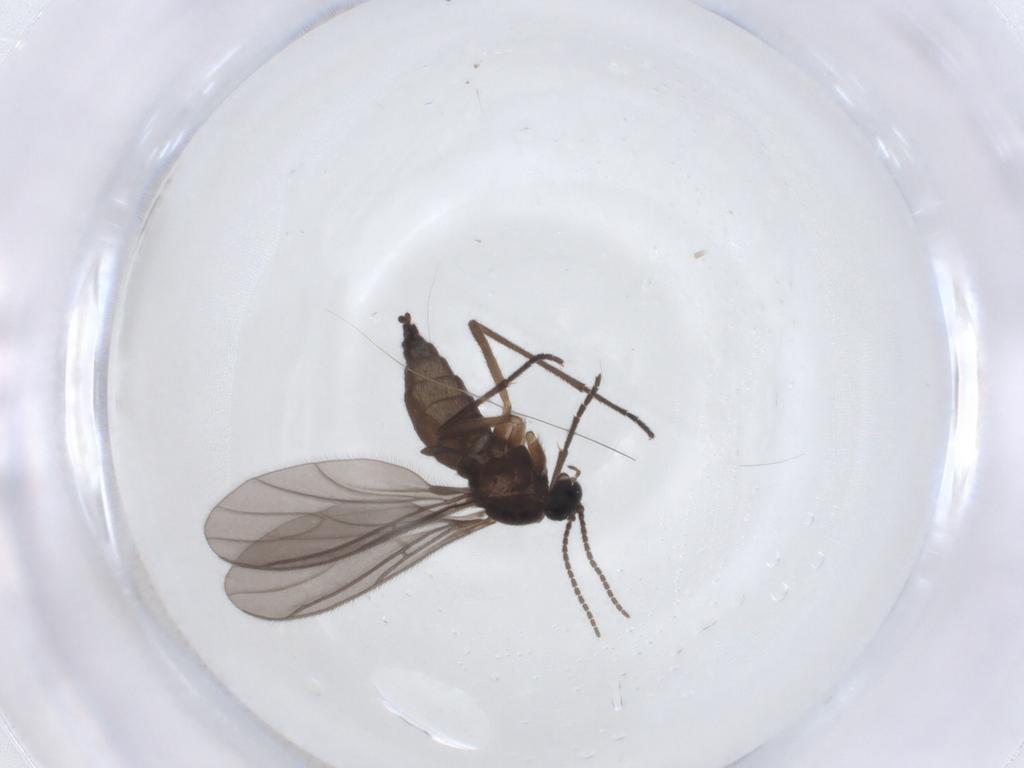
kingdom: Animalia
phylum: Arthropoda
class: Insecta
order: Diptera
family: Sciaridae
